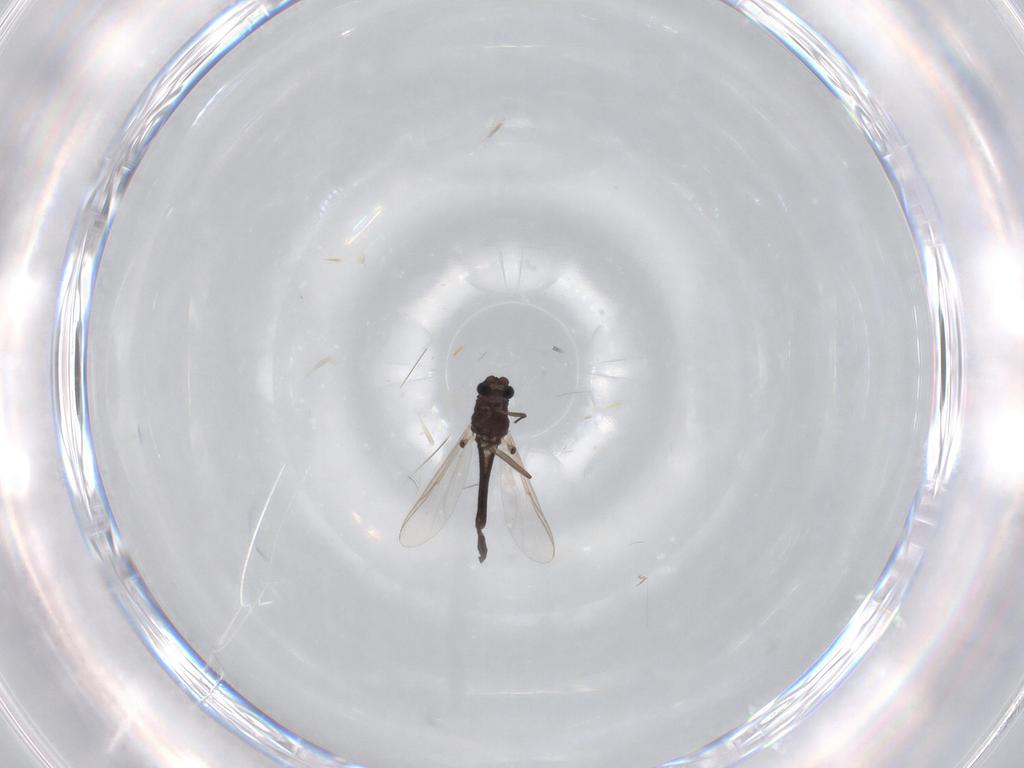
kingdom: Animalia
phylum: Arthropoda
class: Insecta
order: Diptera
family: Chironomidae
